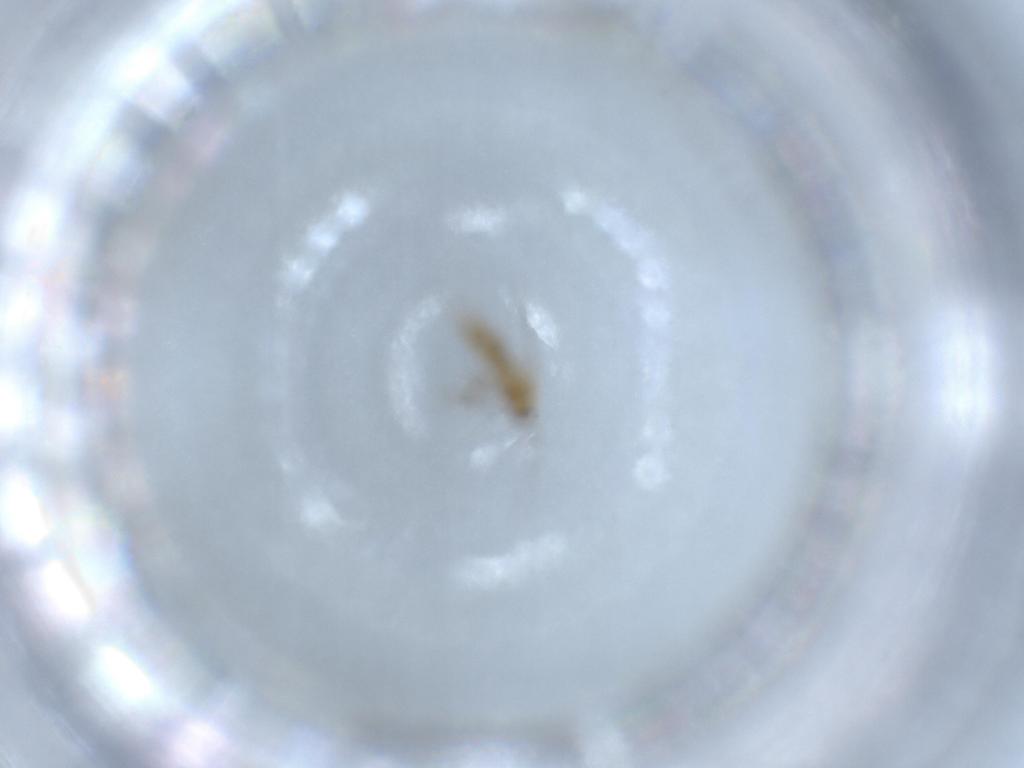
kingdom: Animalia
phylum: Arthropoda
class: Insecta
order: Diptera
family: Chironomidae
